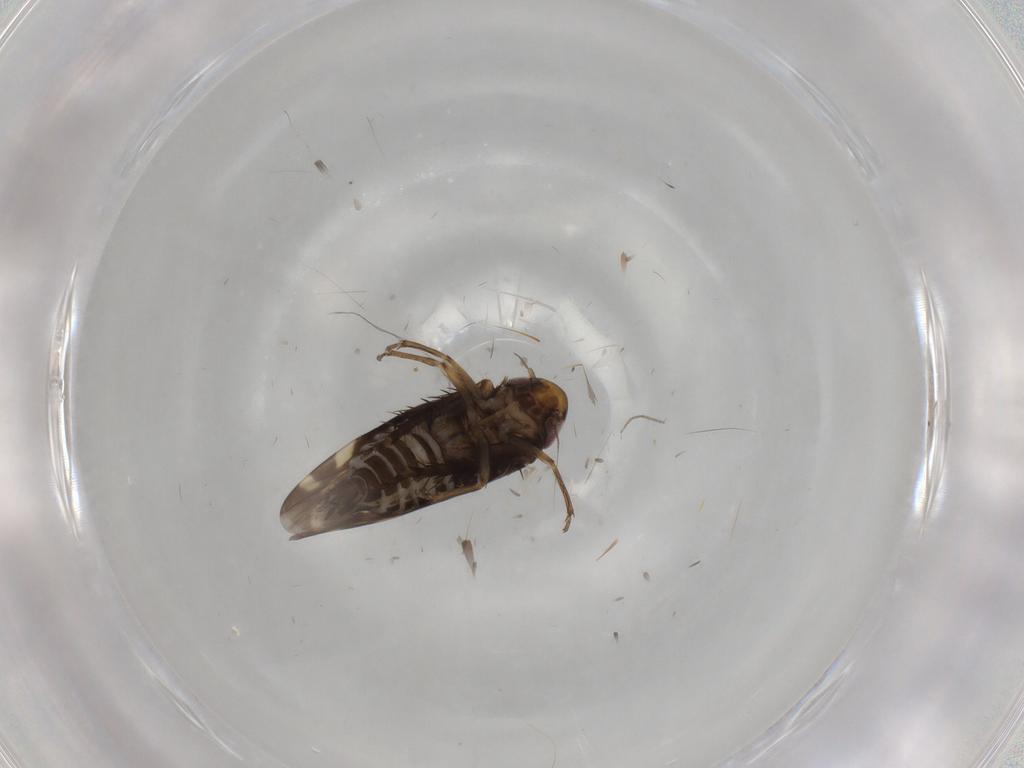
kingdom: Animalia
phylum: Arthropoda
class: Insecta
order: Hemiptera
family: Cicadellidae
